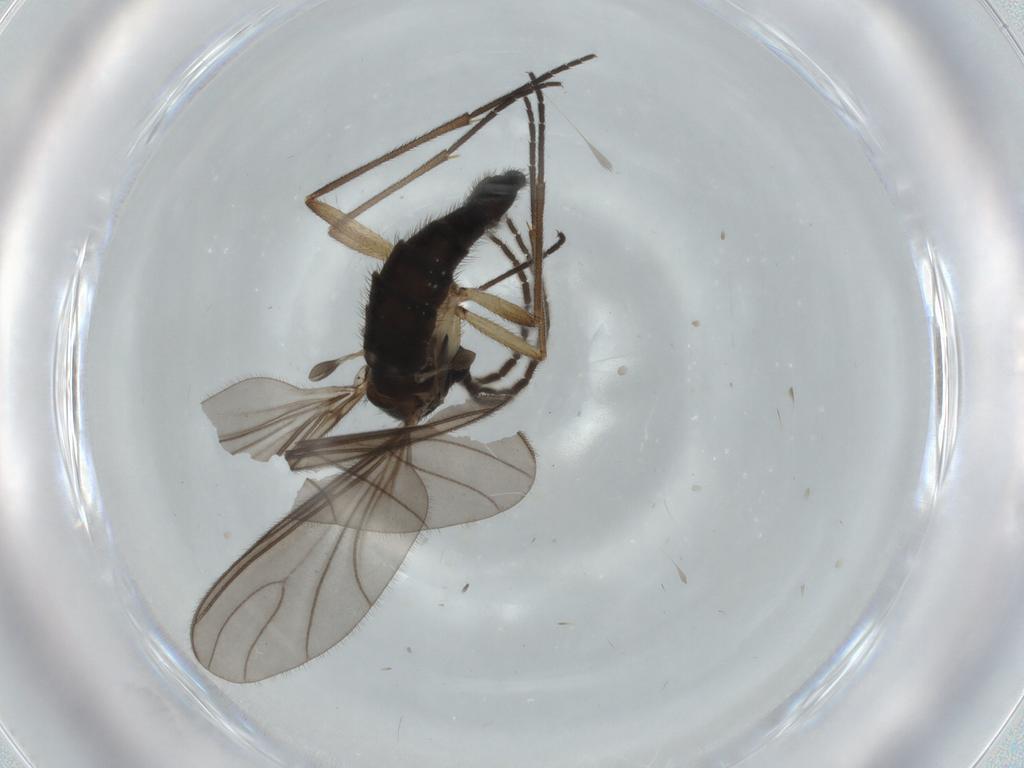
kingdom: Animalia
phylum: Arthropoda
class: Insecta
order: Diptera
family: Sciaridae
